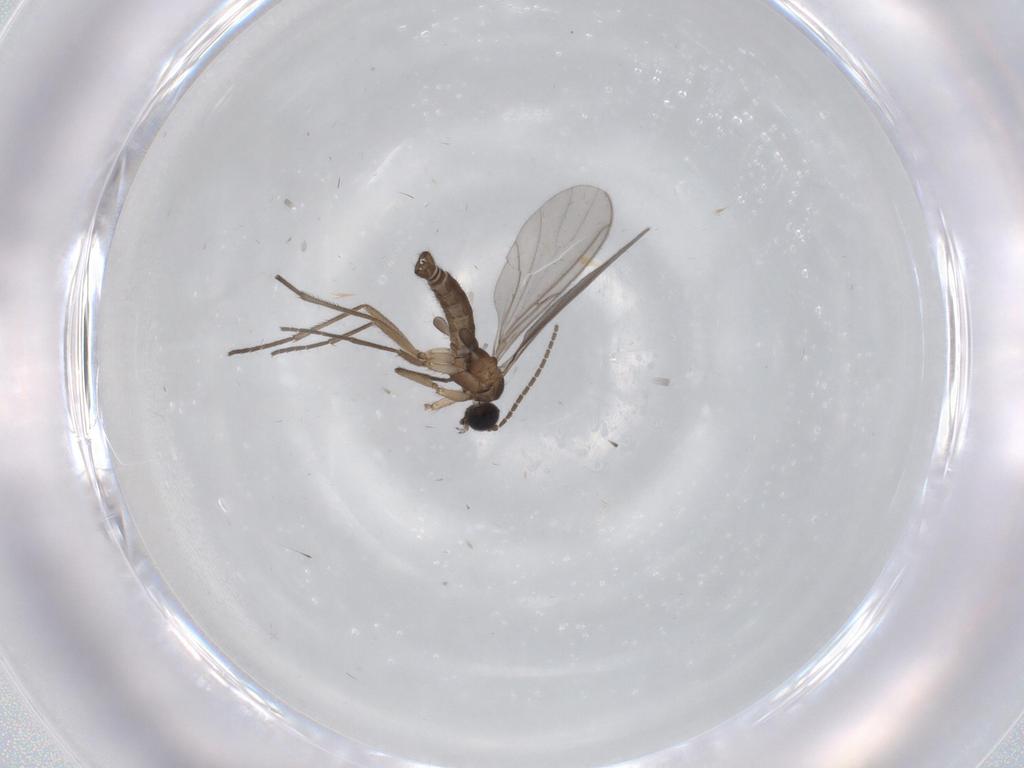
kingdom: Animalia
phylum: Arthropoda
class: Insecta
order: Diptera
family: Sciaridae
